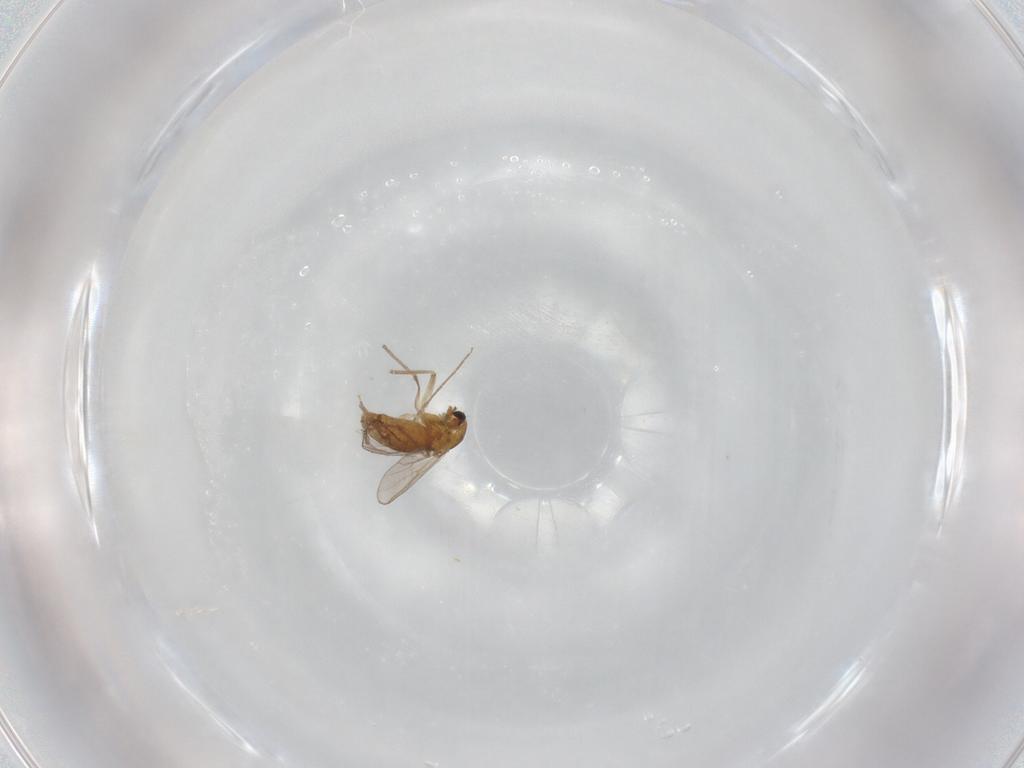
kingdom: Animalia
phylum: Arthropoda
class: Insecta
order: Diptera
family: Chironomidae
